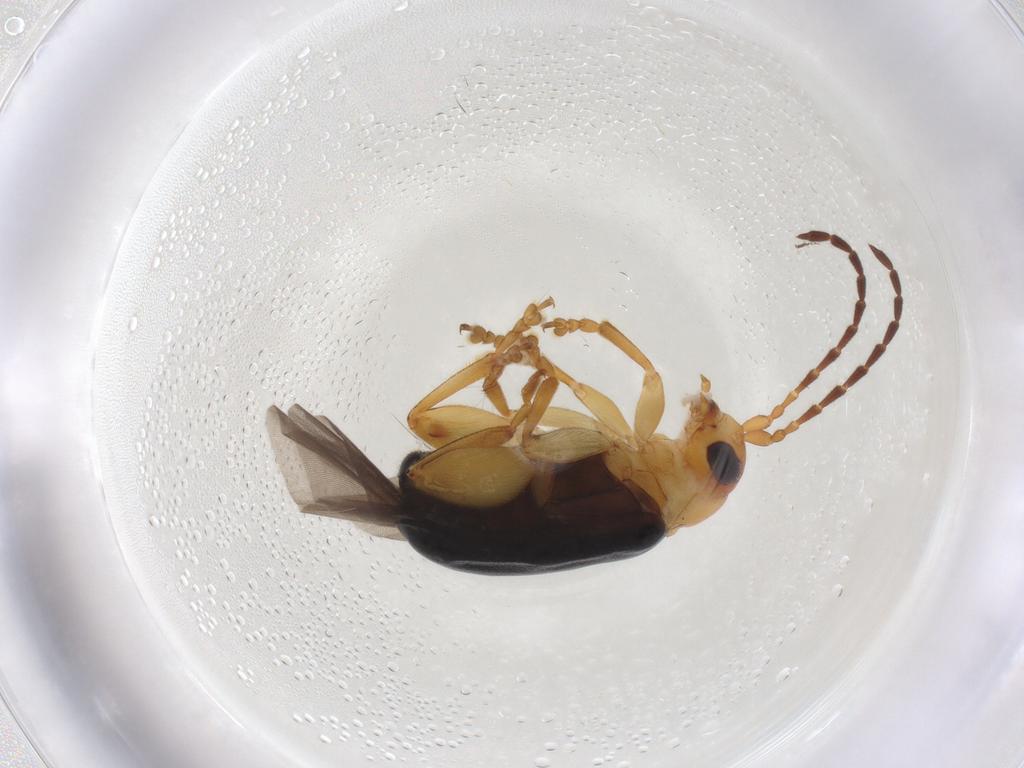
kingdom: Animalia
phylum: Arthropoda
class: Insecta
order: Coleoptera
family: Chrysomelidae
